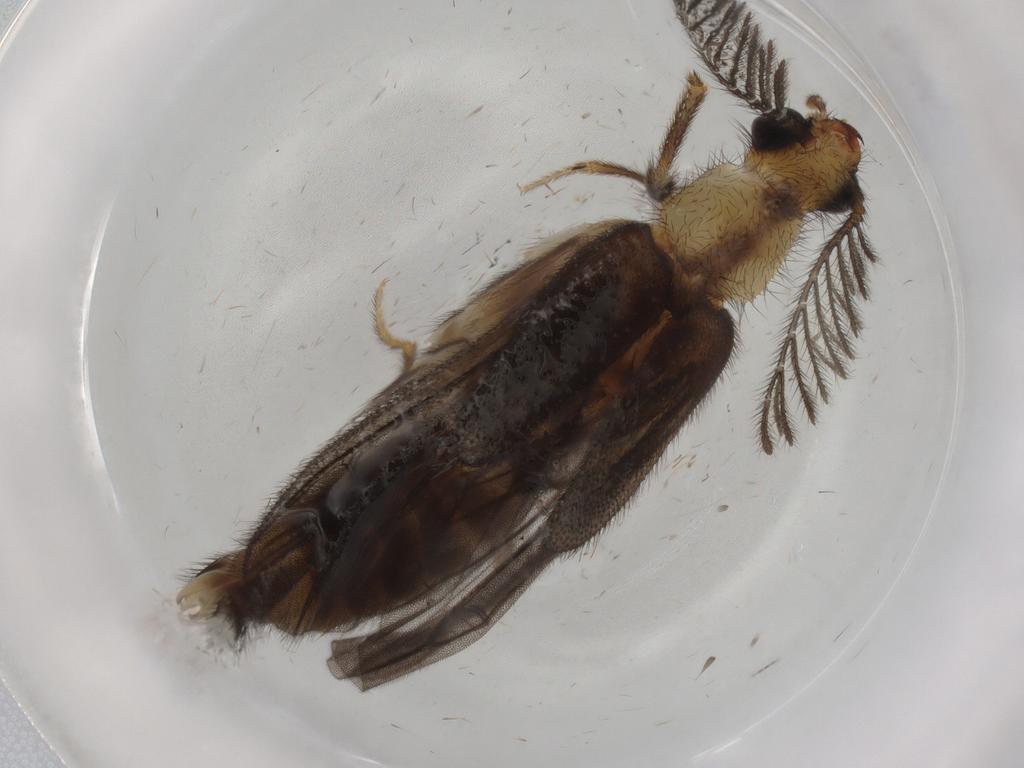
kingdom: Animalia
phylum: Arthropoda
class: Insecta
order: Coleoptera
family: Phengodidae
